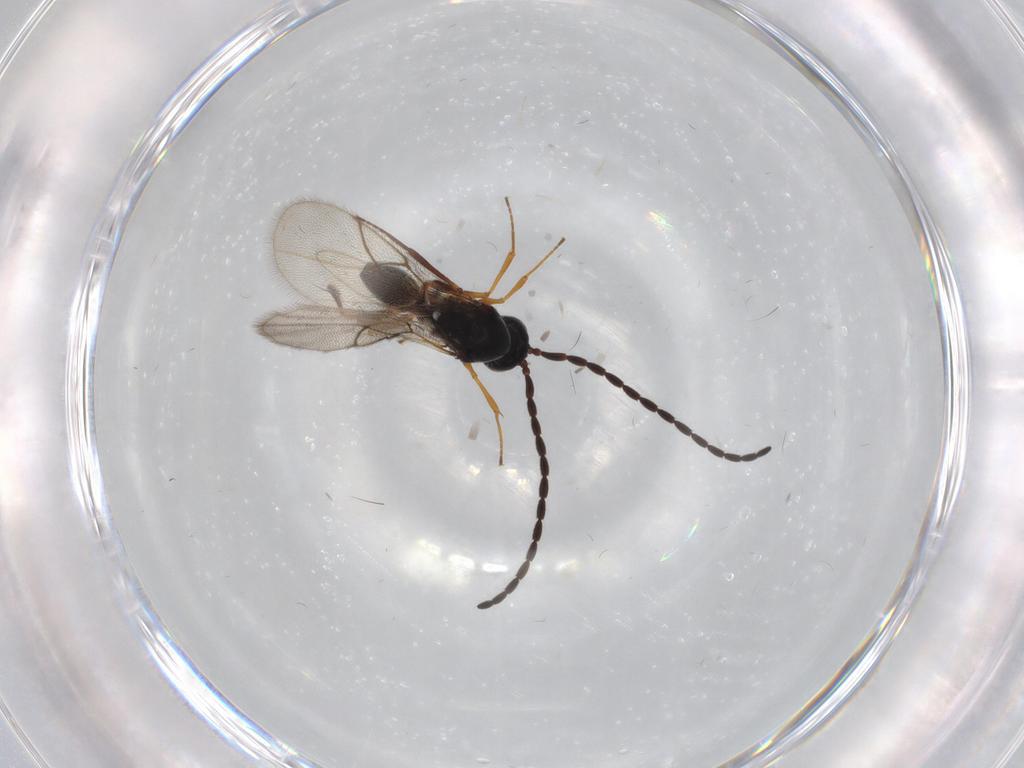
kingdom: Animalia
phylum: Arthropoda
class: Insecta
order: Hymenoptera
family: Figitidae
